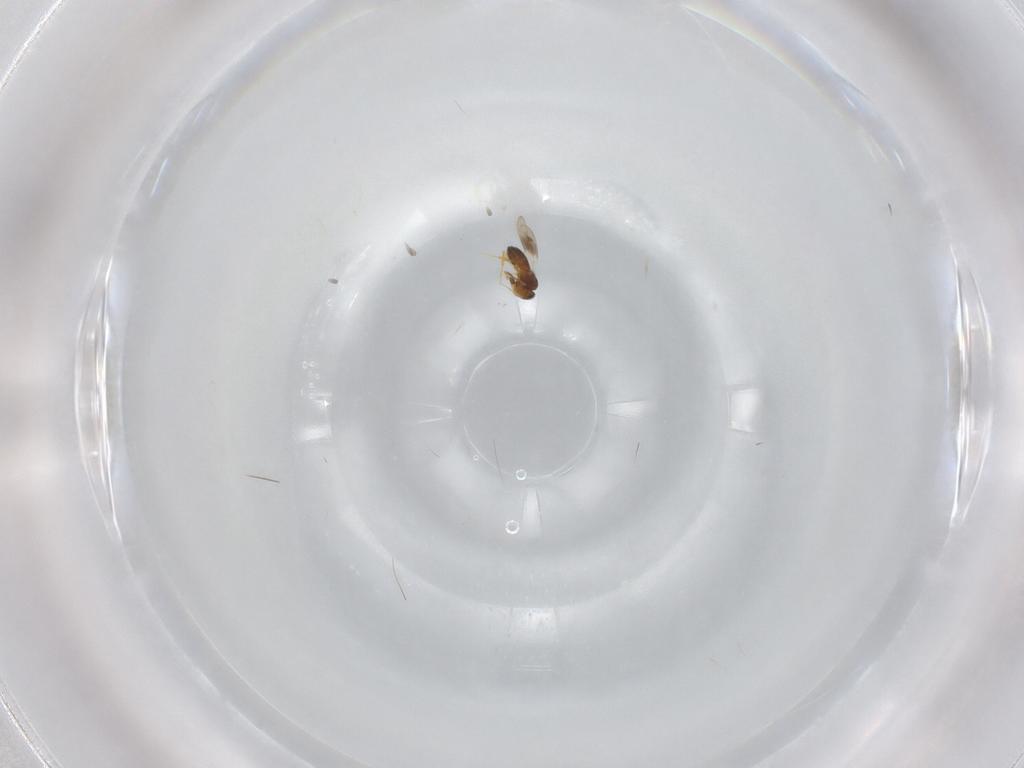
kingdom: Animalia
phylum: Arthropoda
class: Insecta
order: Hymenoptera
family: Platygastridae
